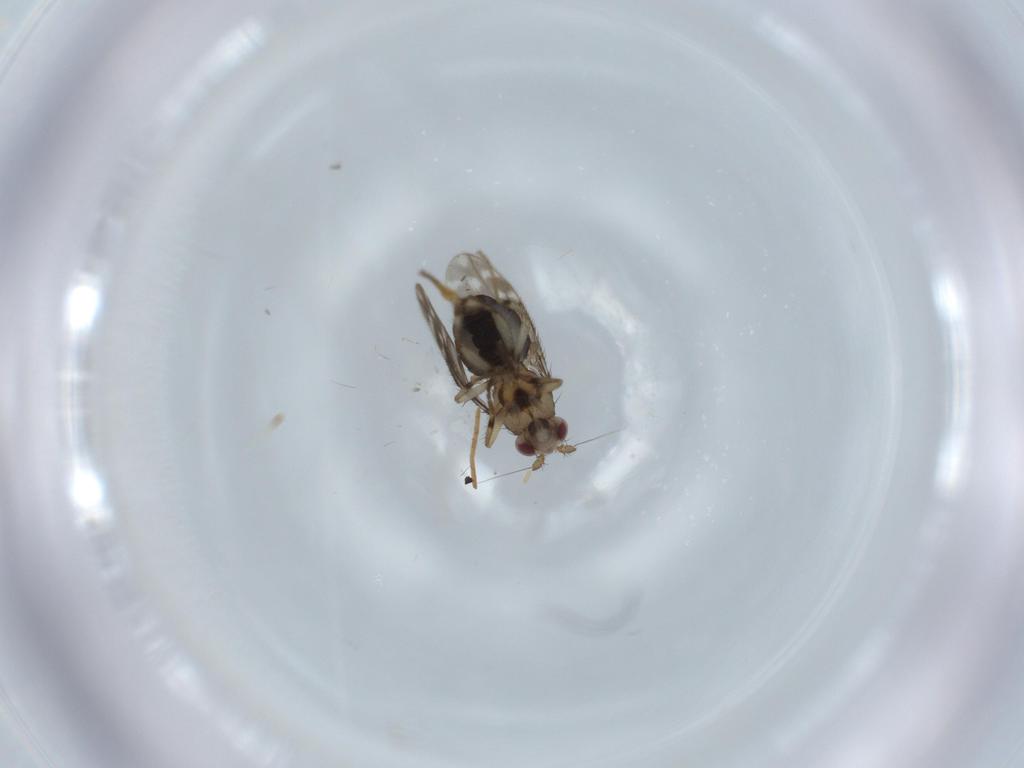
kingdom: Animalia
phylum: Arthropoda
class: Insecta
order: Diptera
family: Sphaeroceridae
